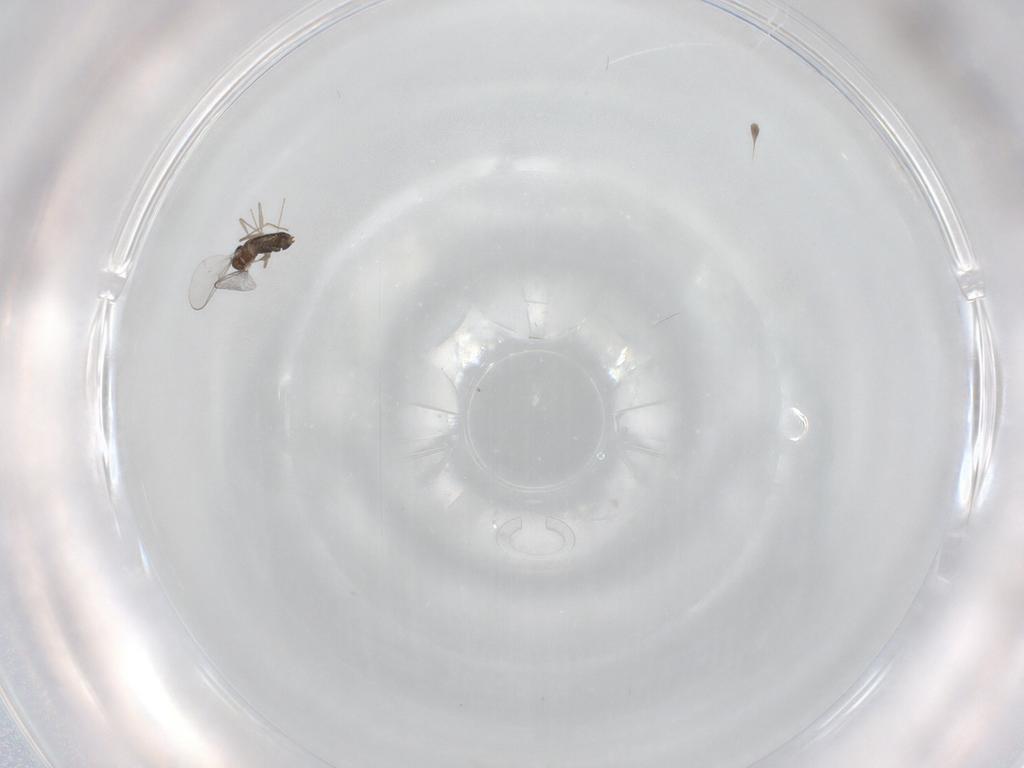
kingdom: Animalia
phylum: Arthropoda
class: Insecta
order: Diptera
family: Chironomidae
